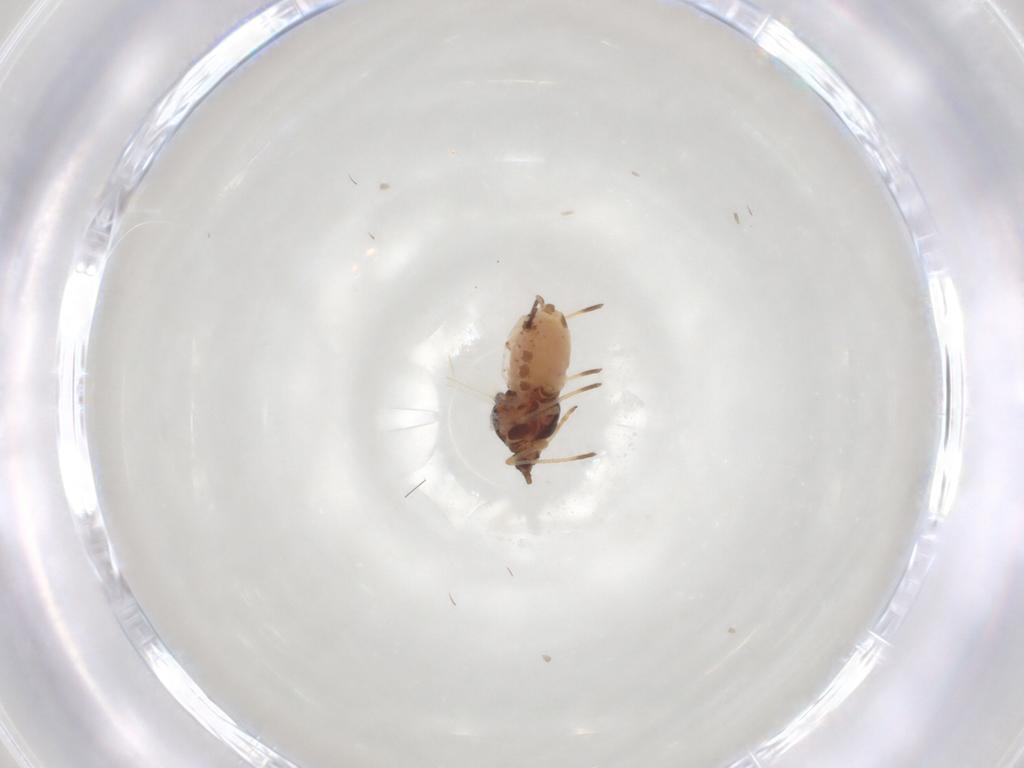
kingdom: Animalia
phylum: Arthropoda
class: Insecta
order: Hemiptera
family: Aphididae
